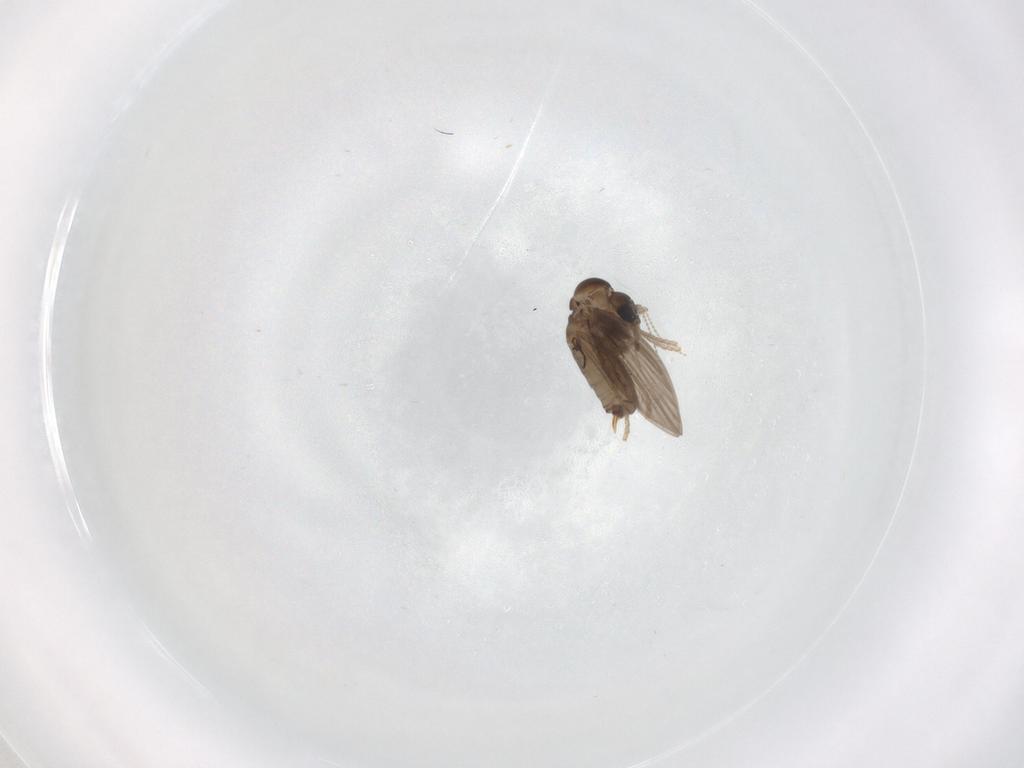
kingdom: Animalia
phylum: Arthropoda
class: Insecta
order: Diptera
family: Psychodidae
